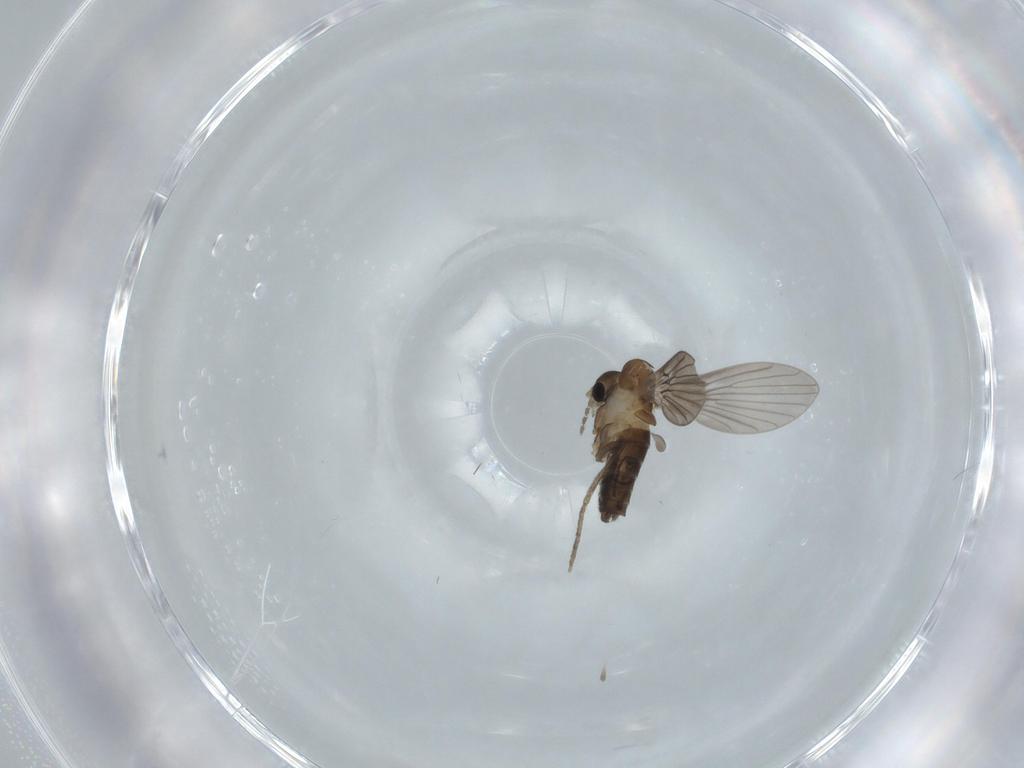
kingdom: Animalia
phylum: Arthropoda
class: Insecta
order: Diptera
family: Psychodidae
